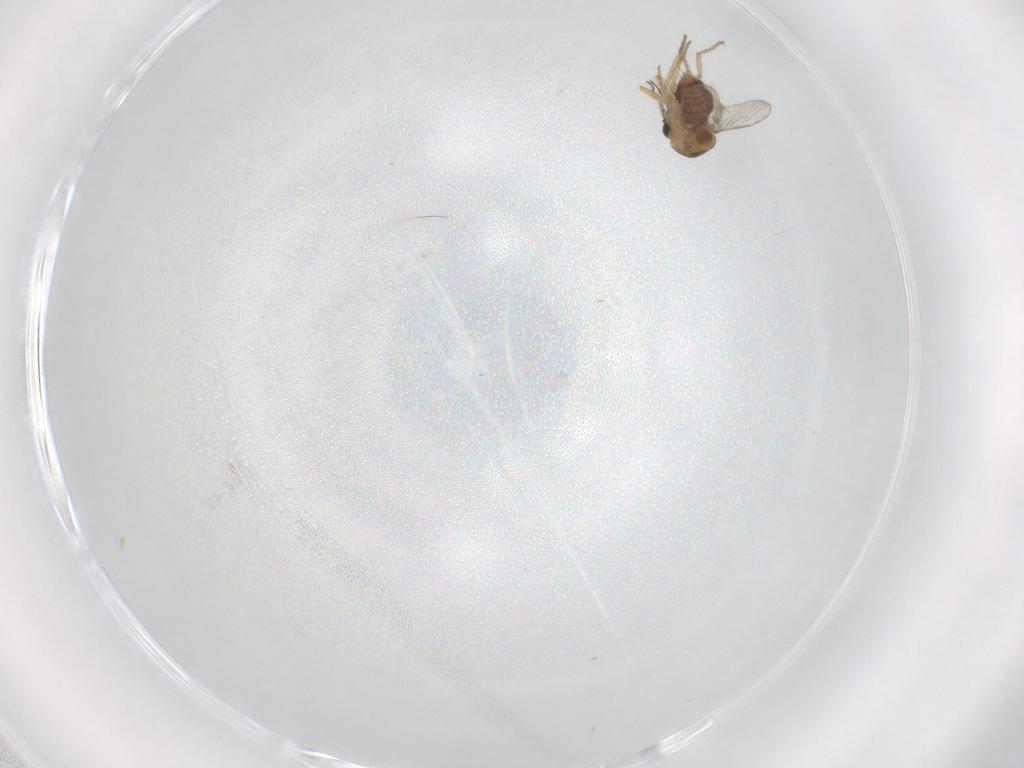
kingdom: Animalia
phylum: Arthropoda
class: Insecta
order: Diptera
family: Ceratopogonidae
